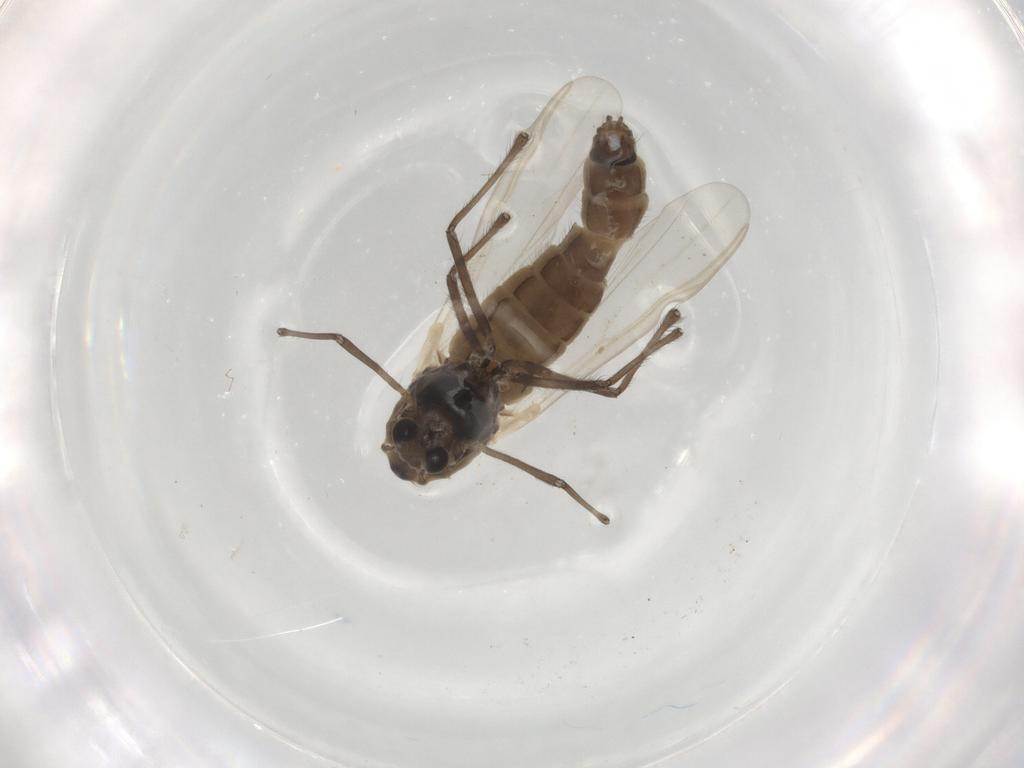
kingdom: Animalia
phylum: Arthropoda
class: Insecta
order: Diptera
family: Chironomidae
